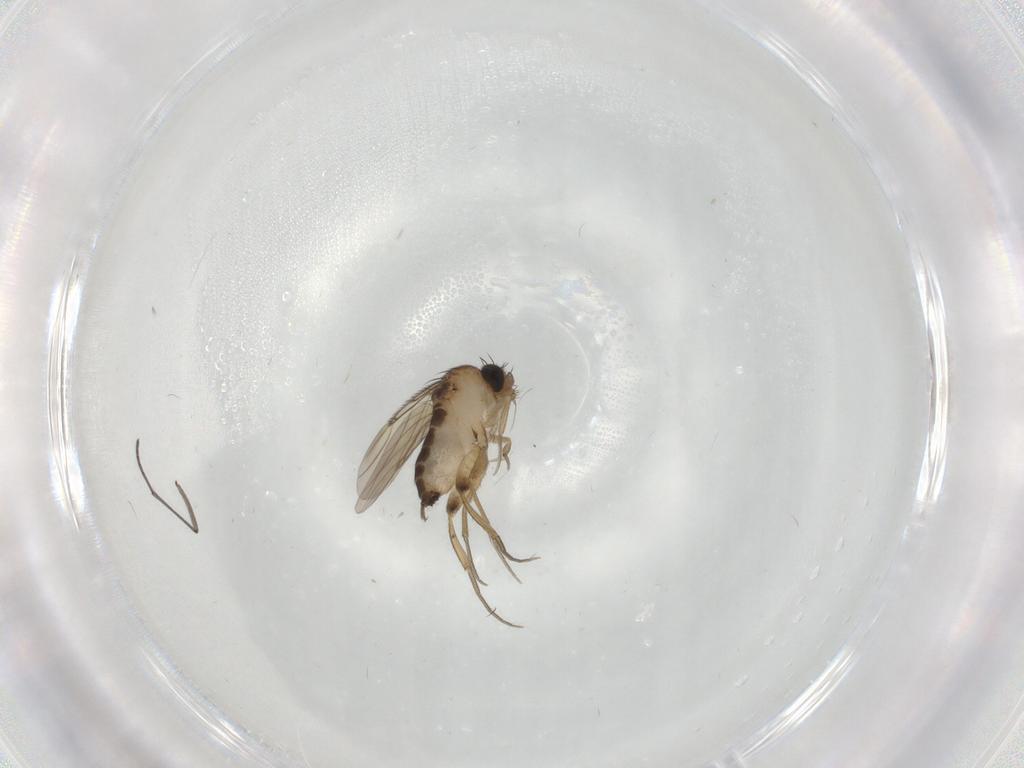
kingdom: Animalia
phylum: Arthropoda
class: Insecta
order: Diptera
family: Phoridae
